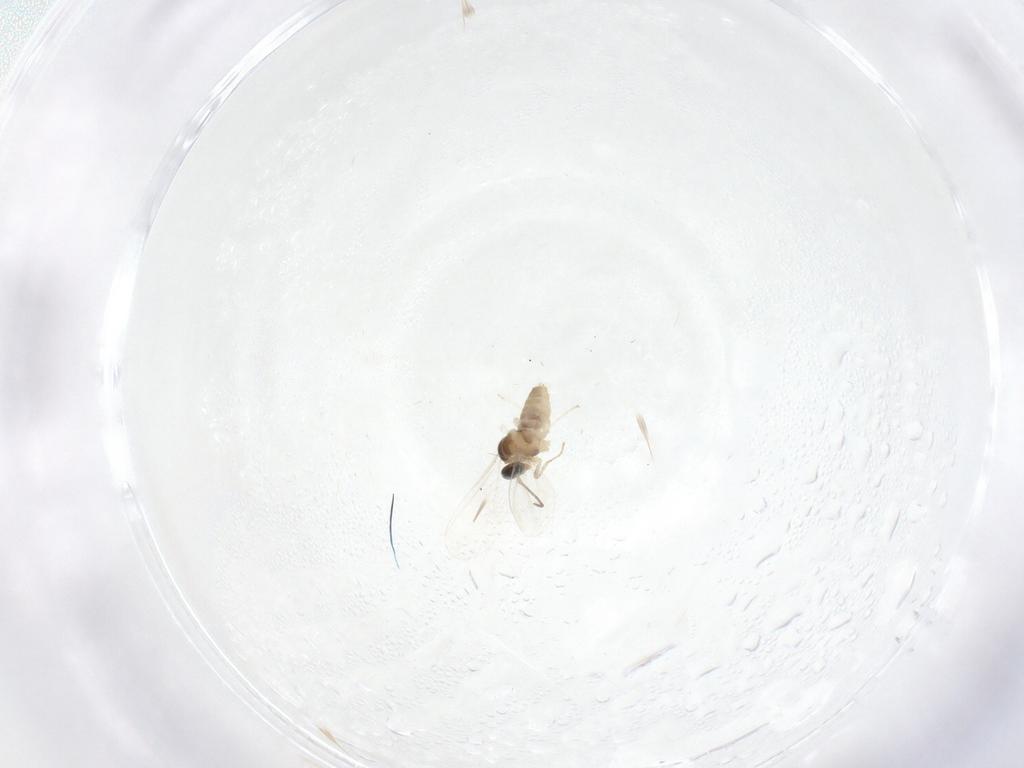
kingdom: Animalia
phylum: Arthropoda
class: Insecta
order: Diptera
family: Cecidomyiidae
